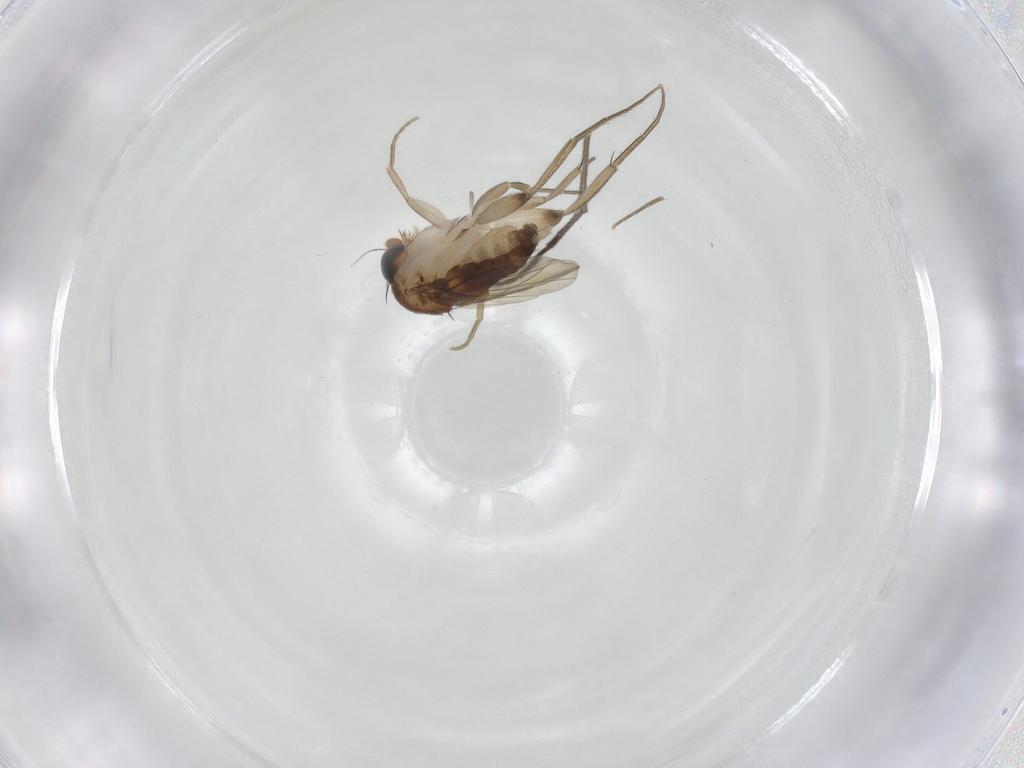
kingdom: Animalia
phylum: Arthropoda
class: Insecta
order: Diptera
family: Phoridae
